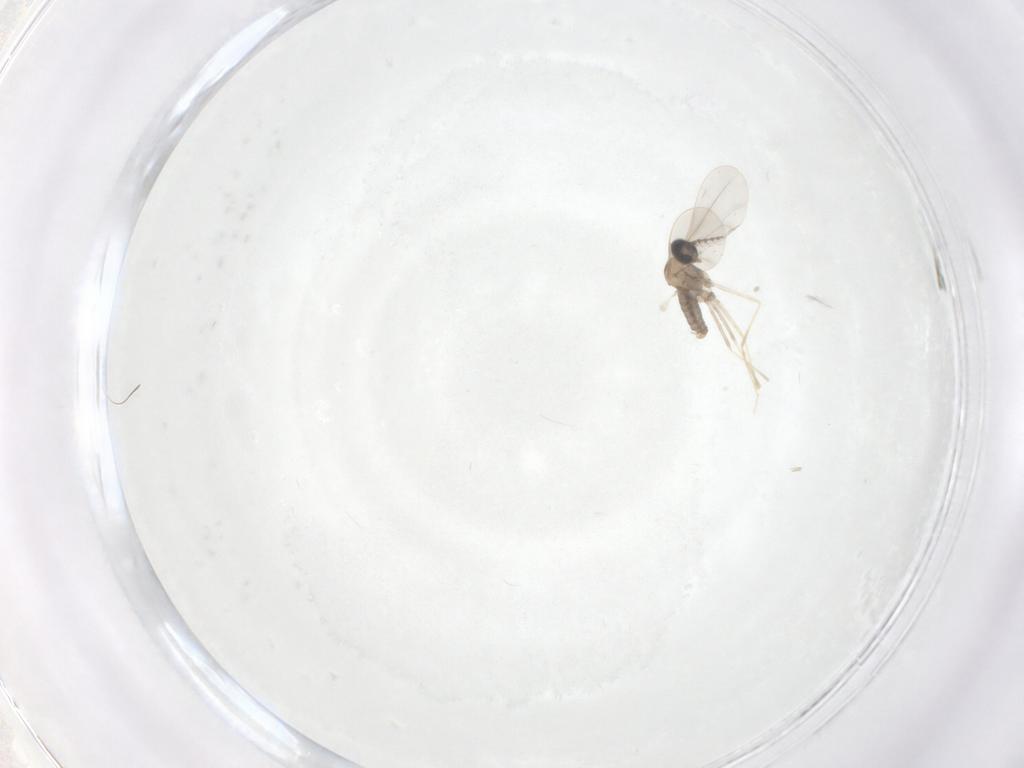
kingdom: Animalia
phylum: Arthropoda
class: Insecta
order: Diptera
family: Sciaridae
